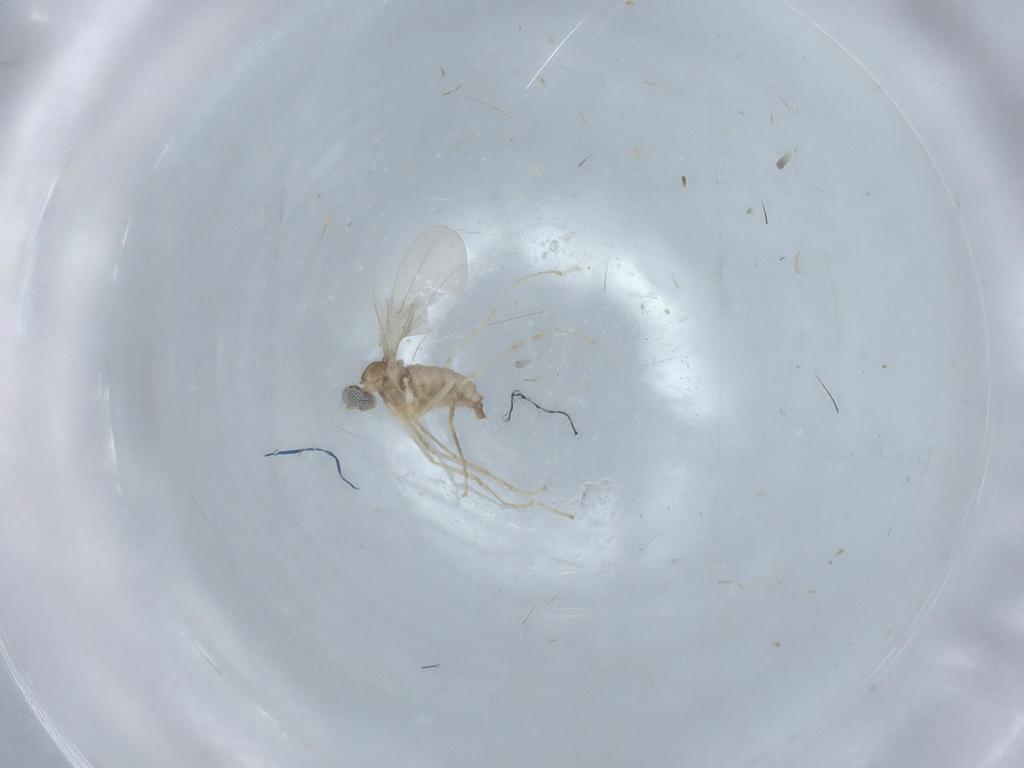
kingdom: Animalia
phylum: Arthropoda
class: Insecta
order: Diptera
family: Cecidomyiidae
